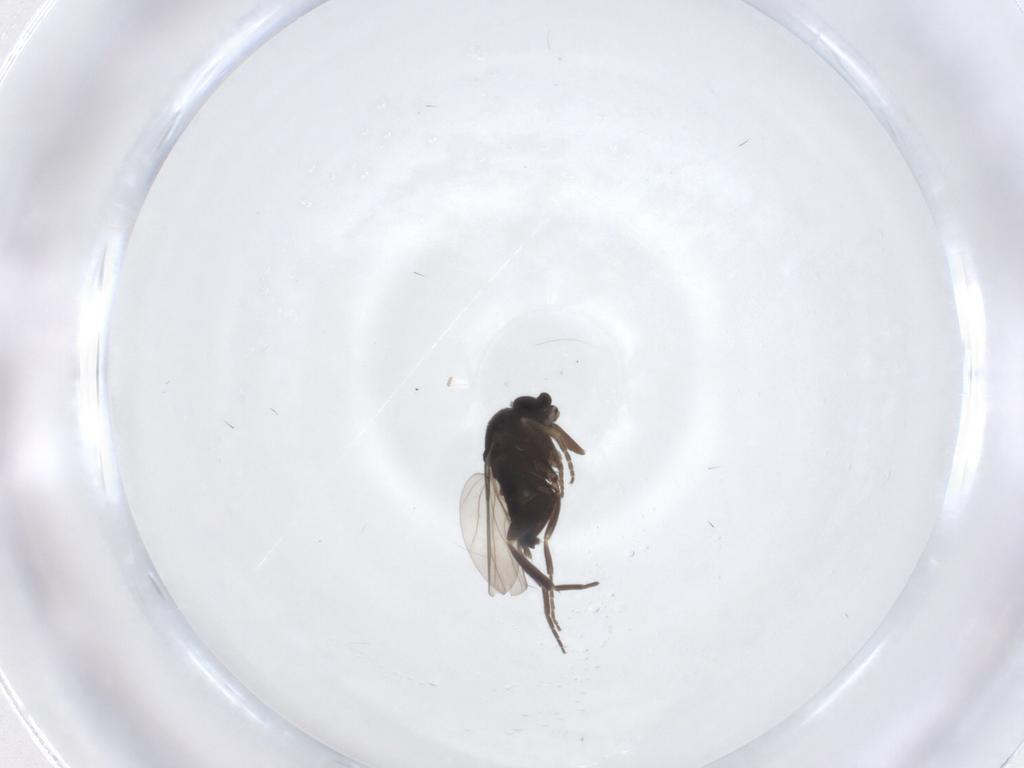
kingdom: Animalia
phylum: Arthropoda
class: Insecta
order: Diptera
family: Phoridae
